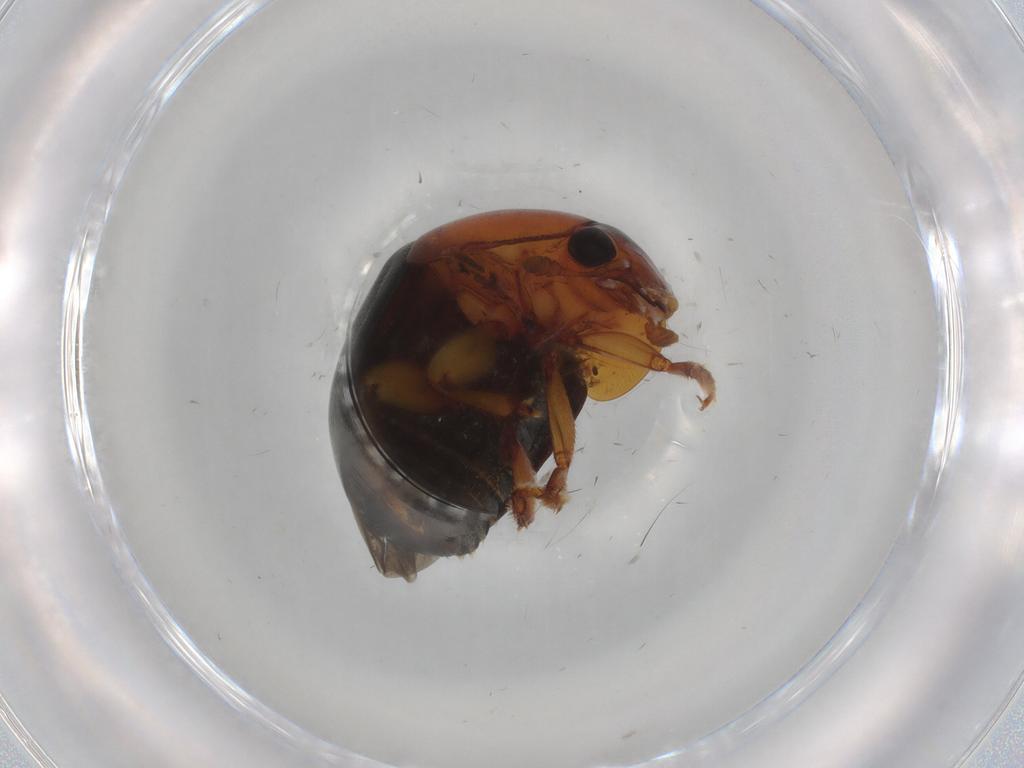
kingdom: Animalia
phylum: Arthropoda
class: Insecta
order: Coleoptera
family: Nitidulidae
